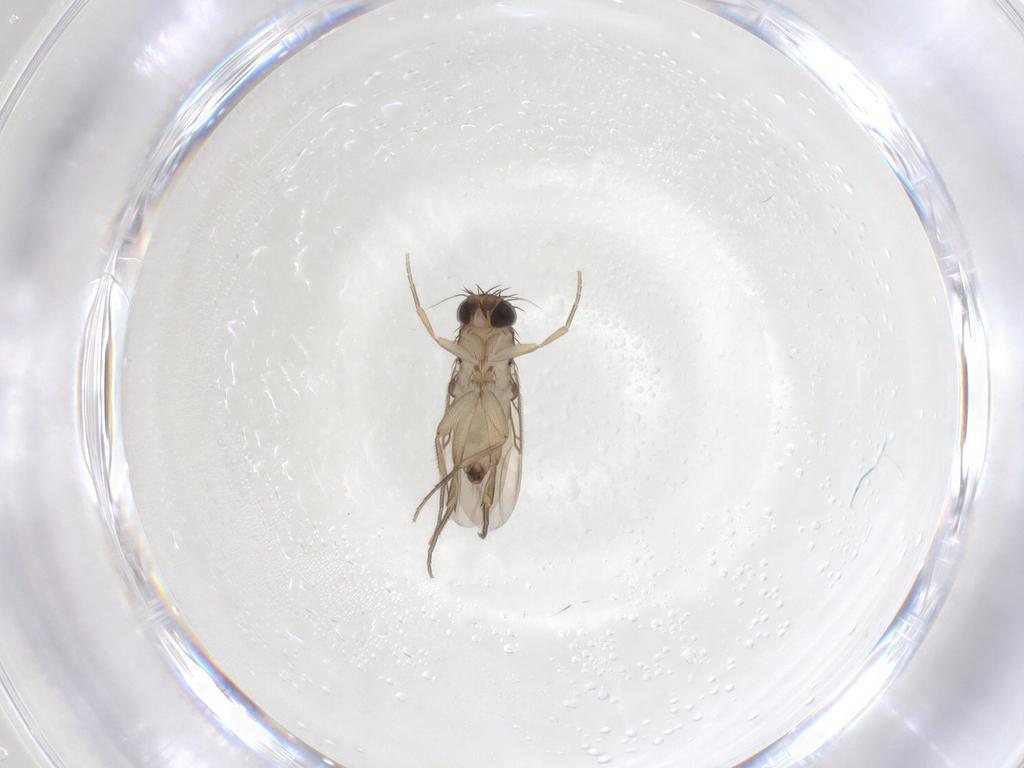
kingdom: Animalia
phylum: Arthropoda
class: Insecta
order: Diptera
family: Phoridae
